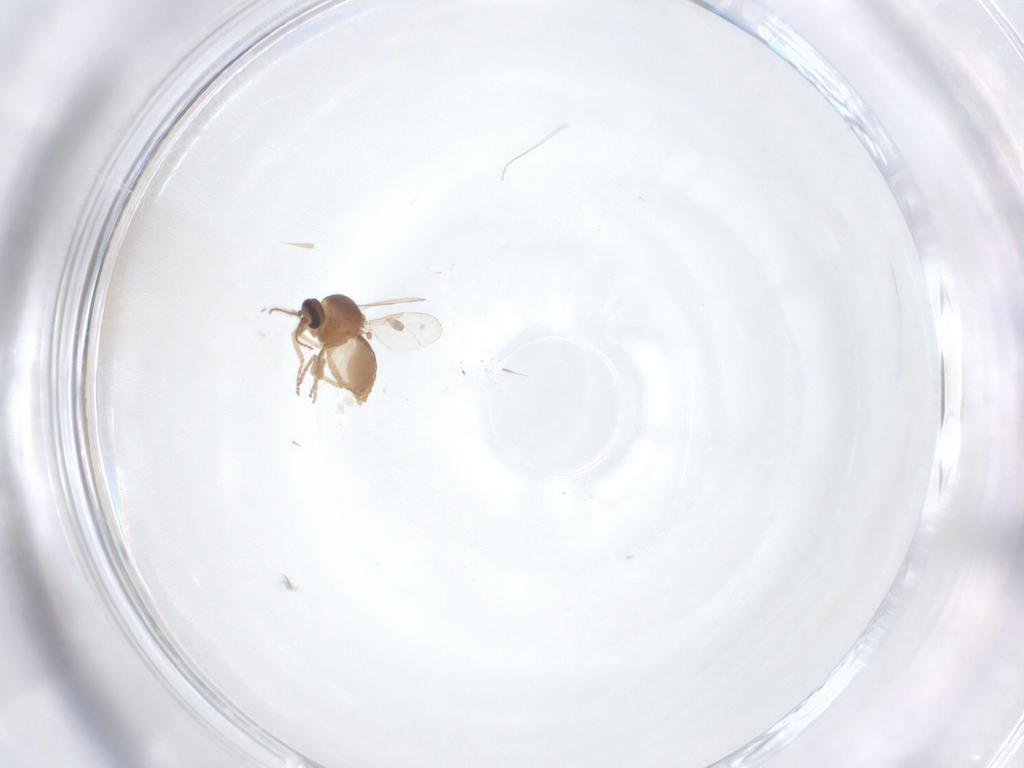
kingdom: Animalia
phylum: Arthropoda
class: Insecta
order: Diptera
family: Ceratopogonidae
